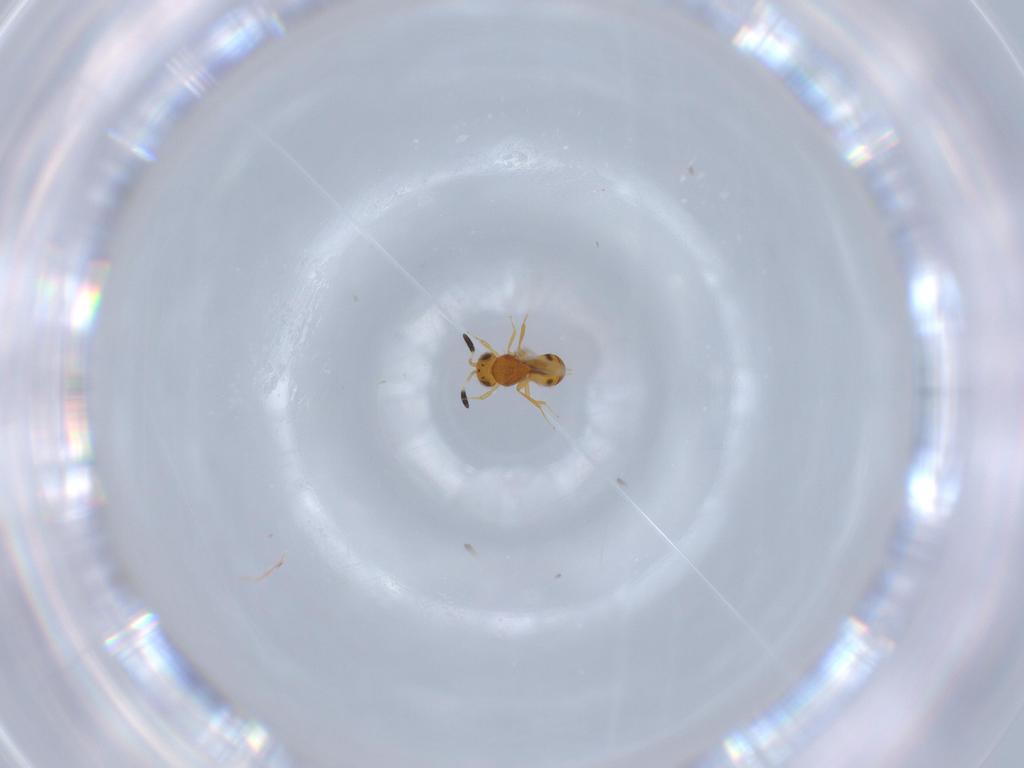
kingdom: Animalia
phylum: Arthropoda
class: Insecta
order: Hymenoptera
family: Scelionidae
